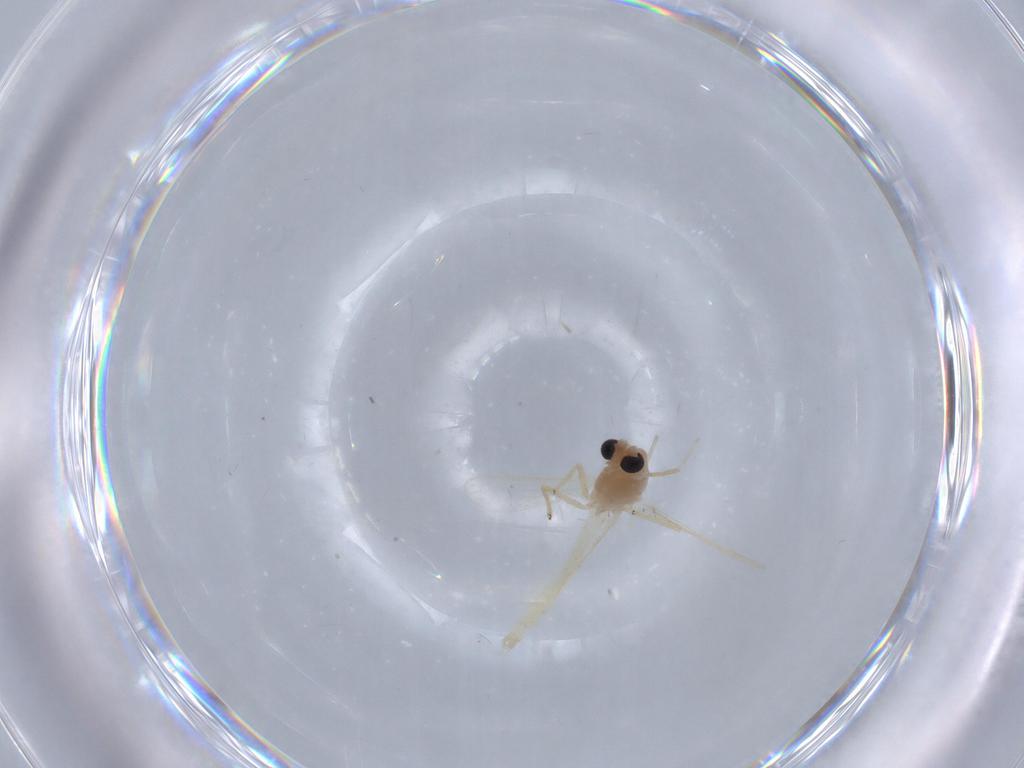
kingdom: Animalia
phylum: Arthropoda
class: Insecta
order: Diptera
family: Chironomidae
